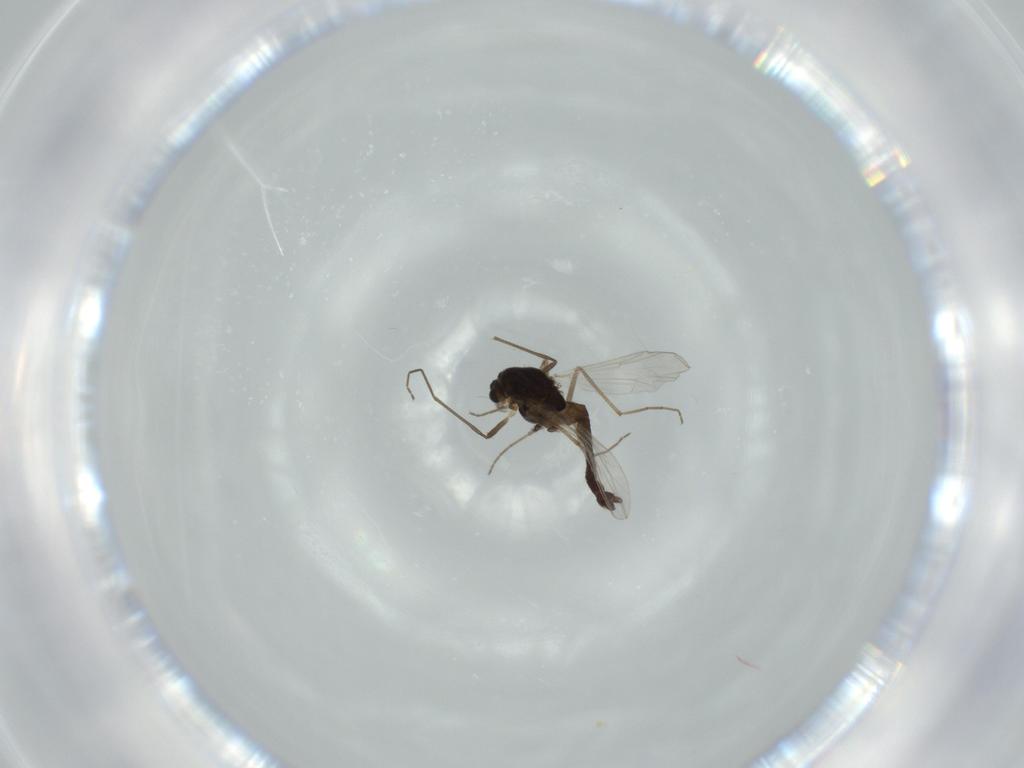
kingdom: Animalia
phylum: Arthropoda
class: Insecta
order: Diptera
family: Chironomidae
